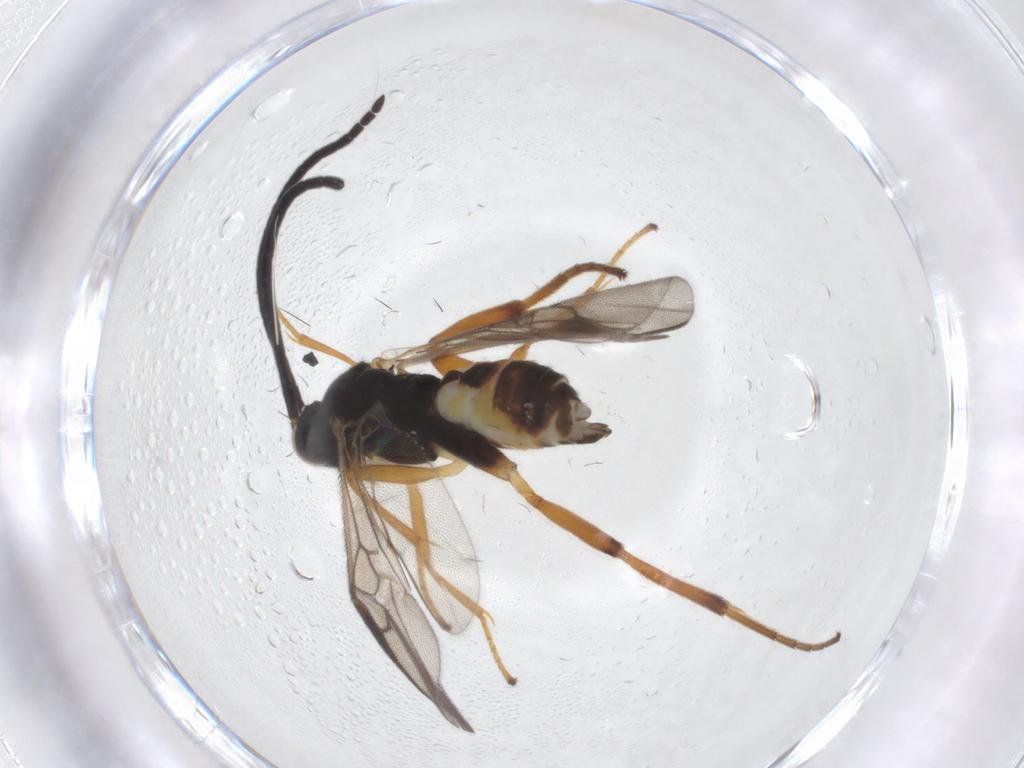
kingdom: Animalia
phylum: Arthropoda
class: Insecta
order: Hymenoptera
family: Braconidae
